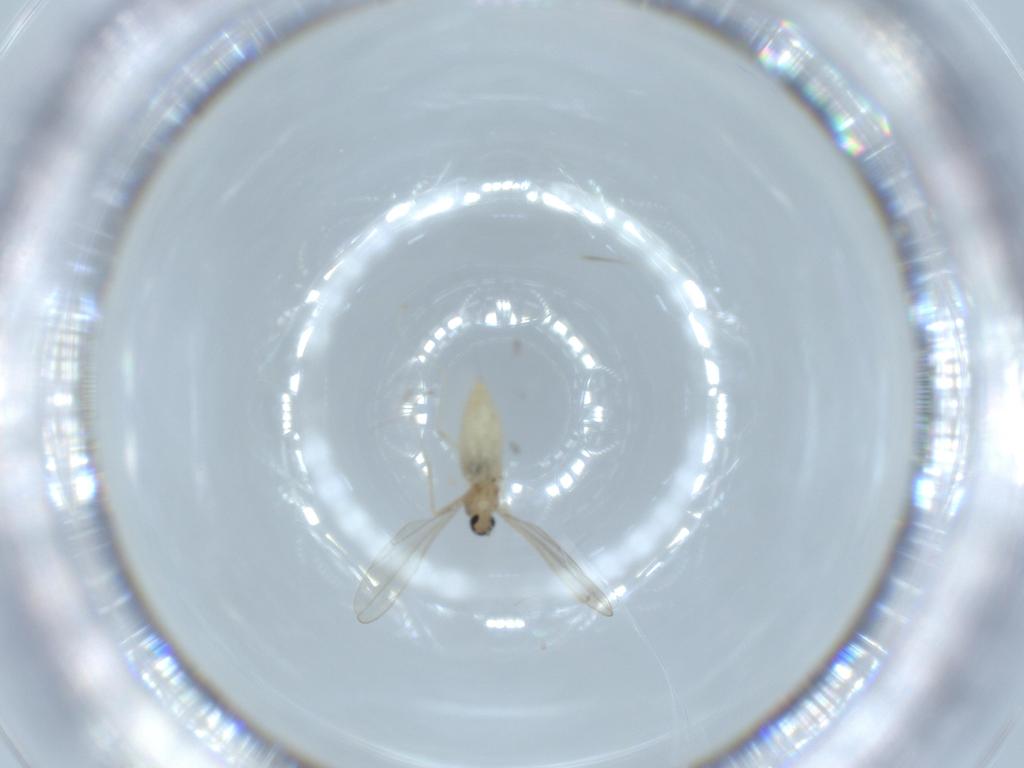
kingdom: Animalia
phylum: Arthropoda
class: Insecta
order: Diptera
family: Cecidomyiidae
